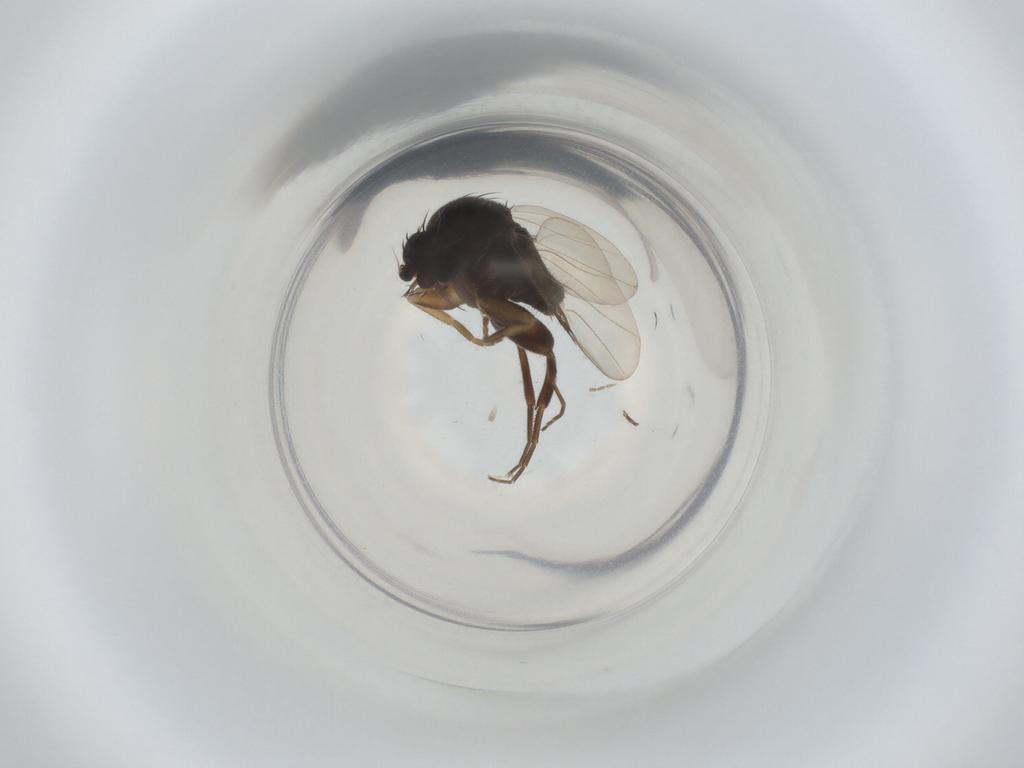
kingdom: Animalia
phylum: Arthropoda
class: Insecta
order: Diptera
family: Phoridae
